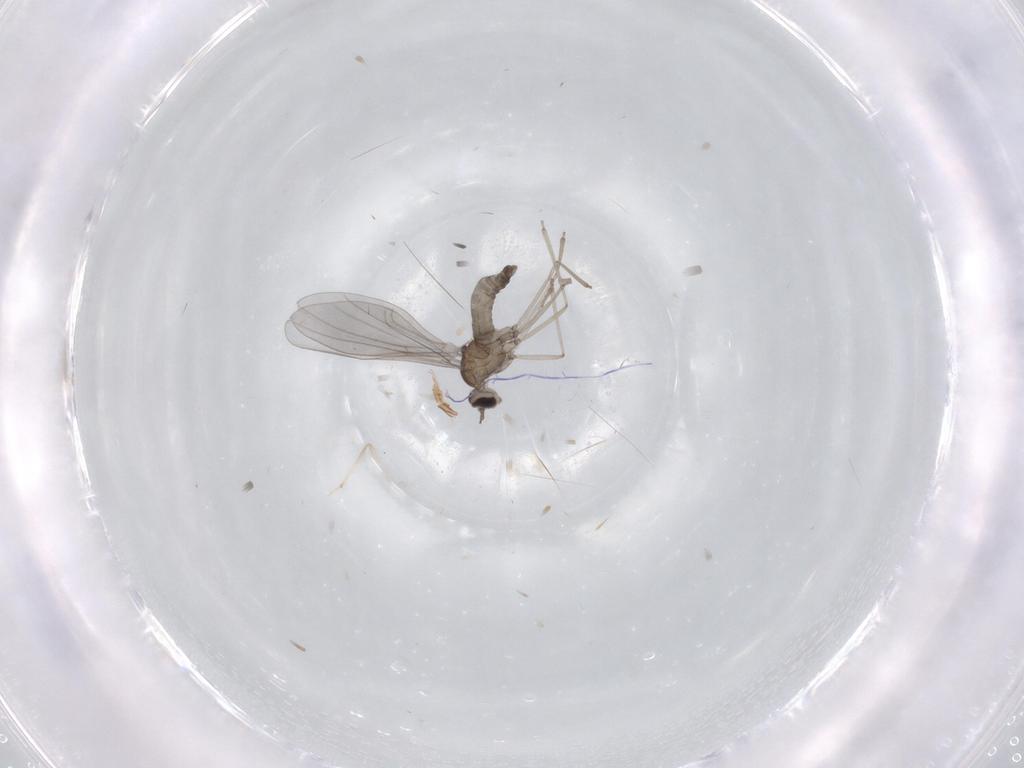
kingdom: Animalia
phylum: Arthropoda
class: Insecta
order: Diptera
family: Cecidomyiidae
